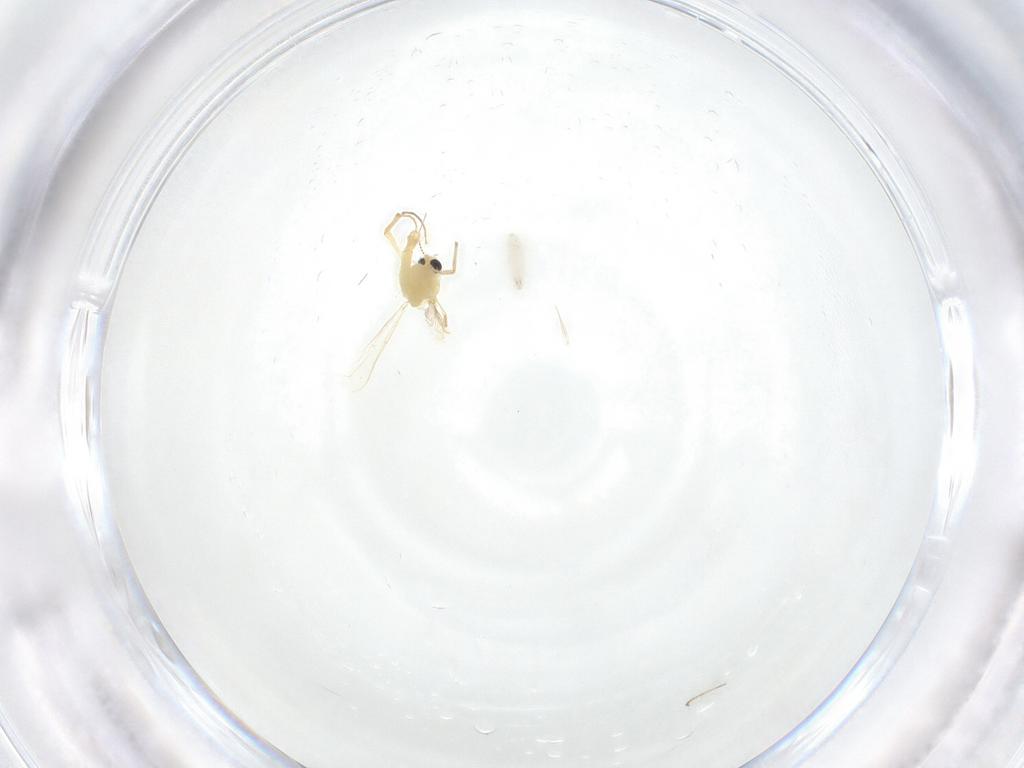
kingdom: Animalia
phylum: Arthropoda
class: Insecta
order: Diptera
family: Chironomidae
